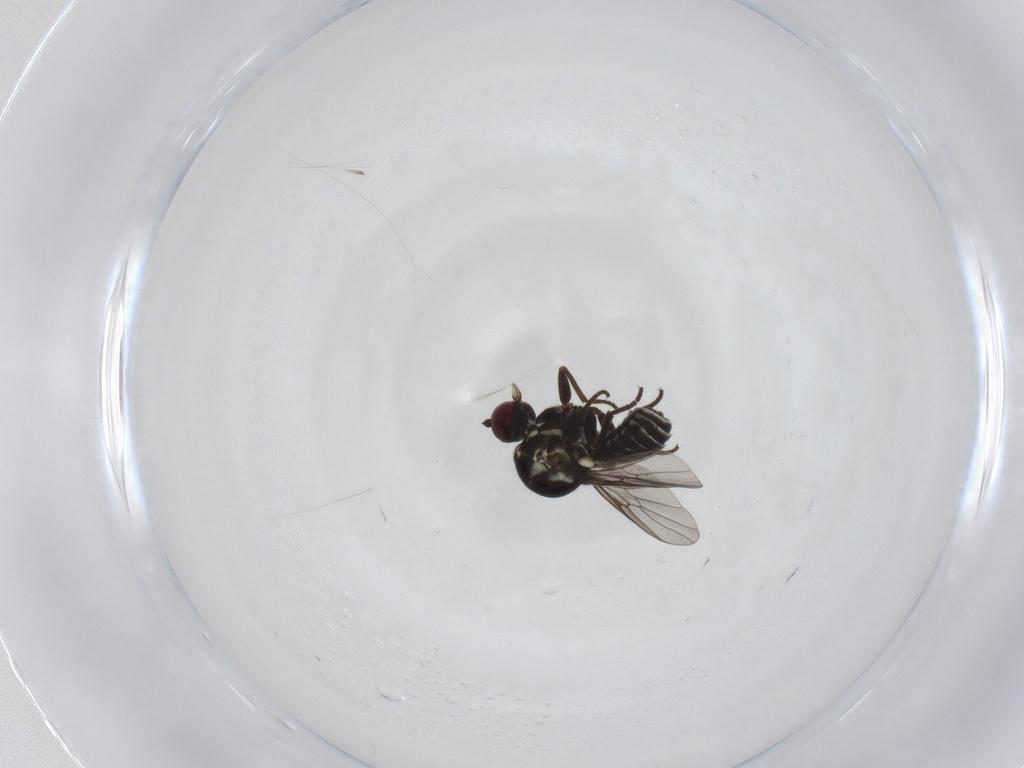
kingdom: Animalia
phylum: Arthropoda
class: Insecta
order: Diptera
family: Bombyliidae
